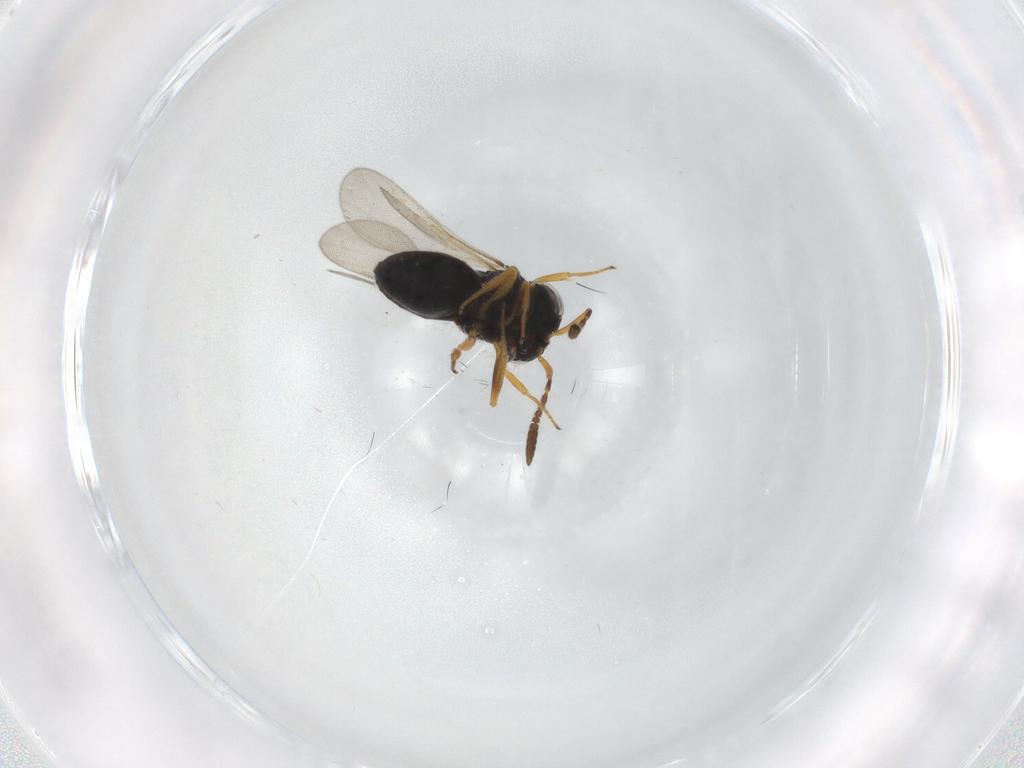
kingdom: Animalia
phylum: Arthropoda
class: Insecta
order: Hymenoptera
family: Scelionidae
